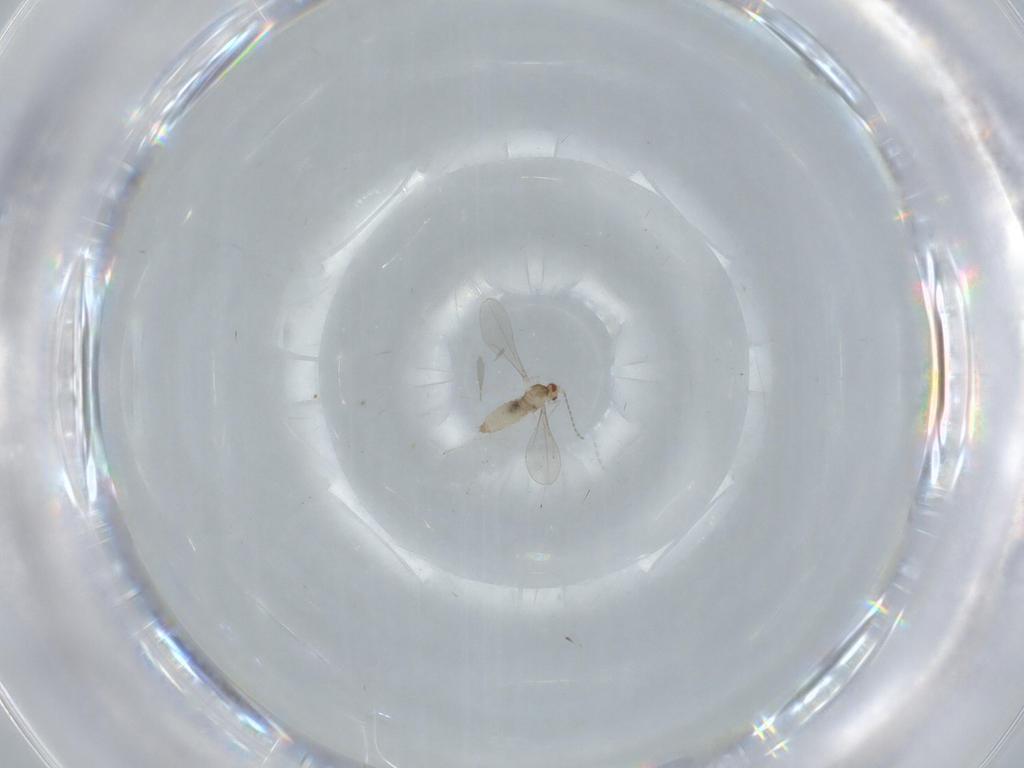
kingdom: Animalia
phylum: Arthropoda
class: Insecta
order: Diptera
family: Cecidomyiidae
